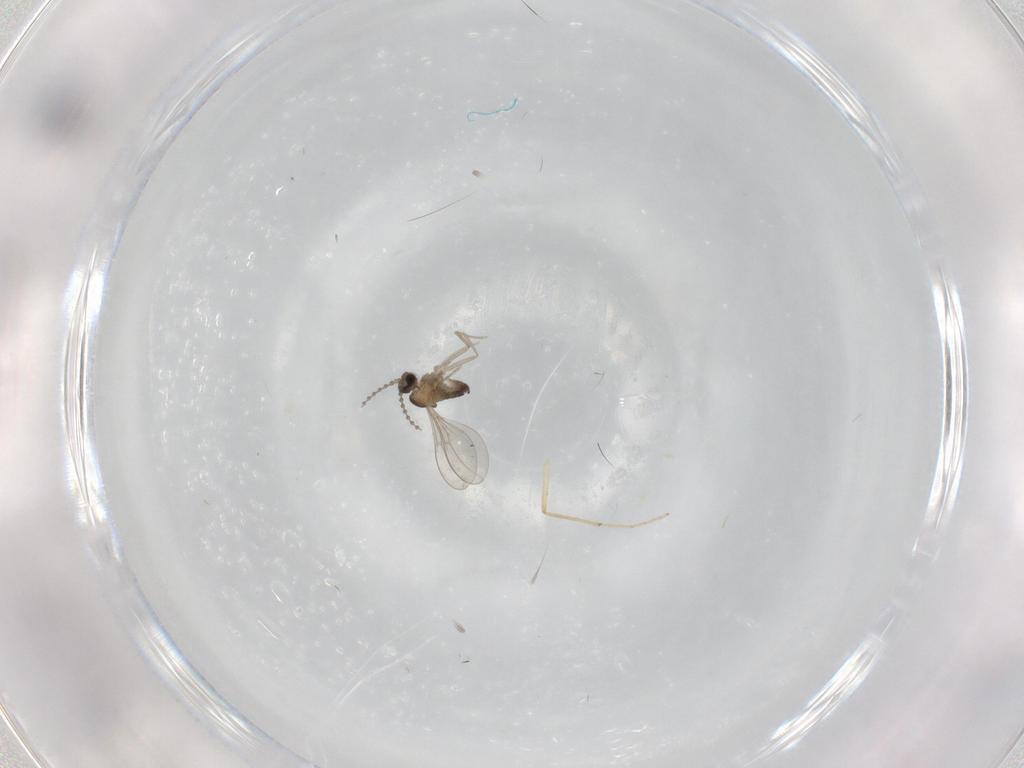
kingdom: Animalia
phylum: Arthropoda
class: Insecta
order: Diptera
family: Cecidomyiidae
